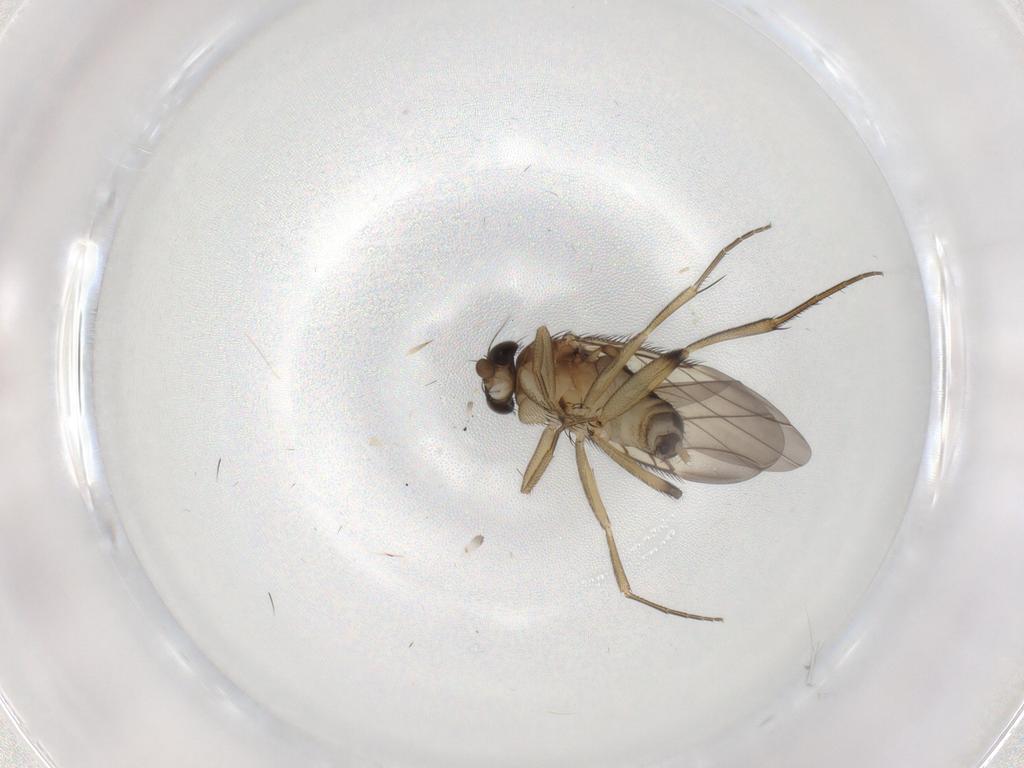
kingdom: Animalia
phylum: Arthropoda
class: Insecta
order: Diptera
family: Phoridae
